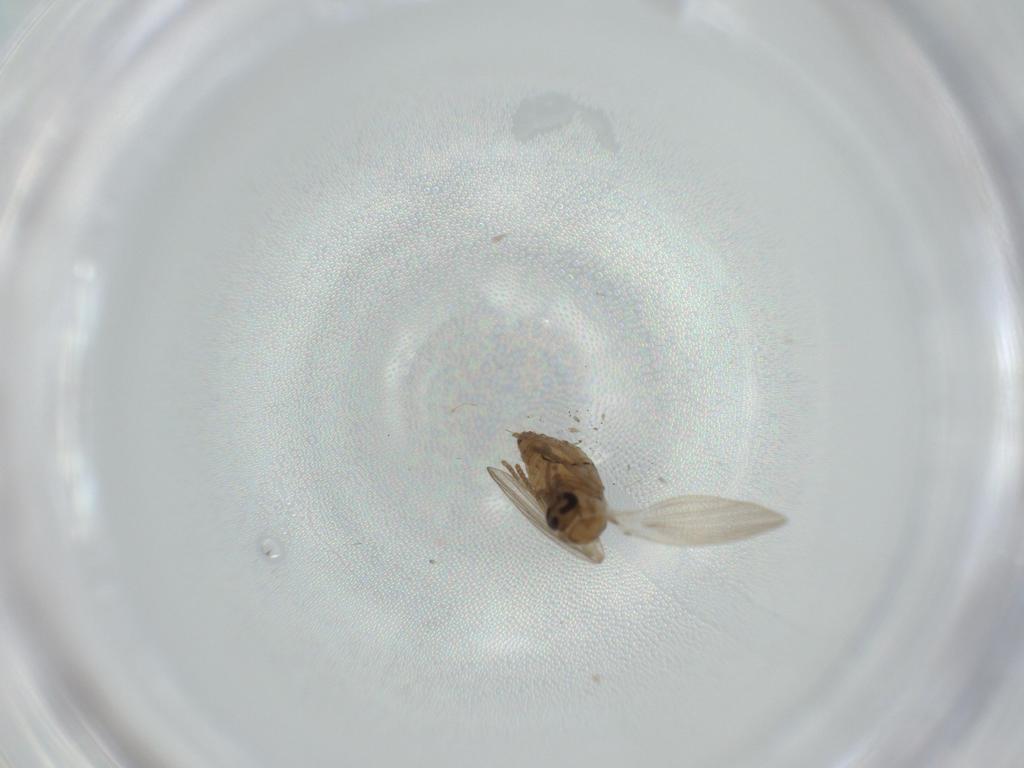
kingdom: Animalia
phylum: Arthropoda
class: Insecta
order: Diptera
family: Psychodidae
